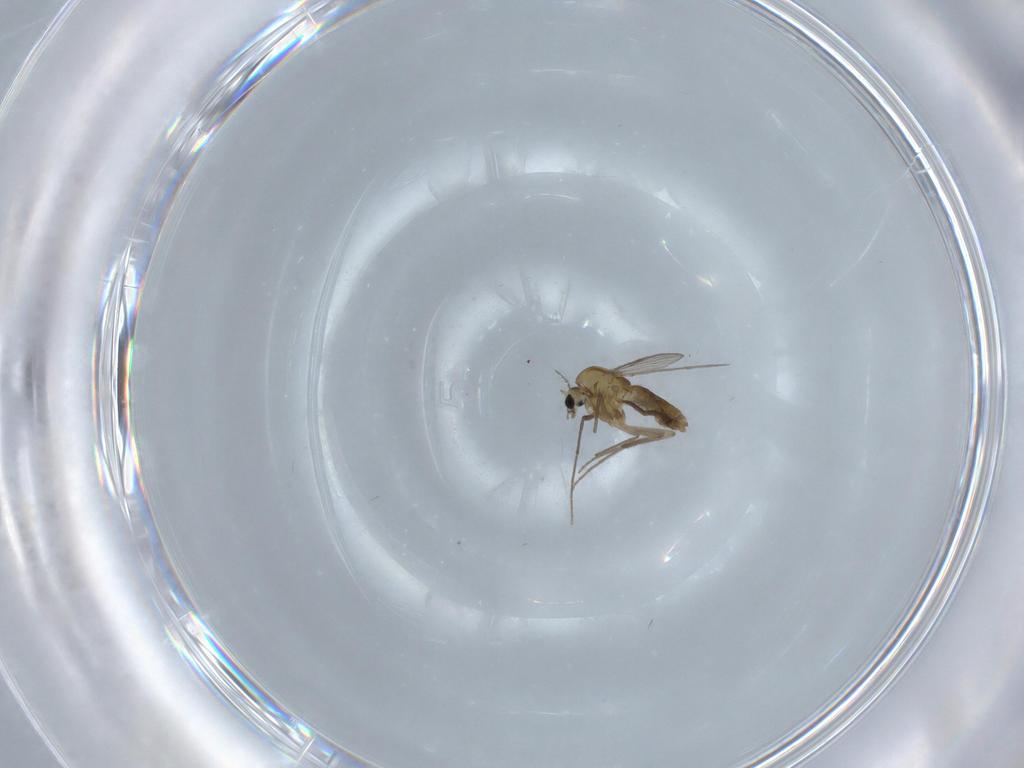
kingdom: Animalia
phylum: Arthropoda
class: Insecta
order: Diptera
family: Chironomidae
